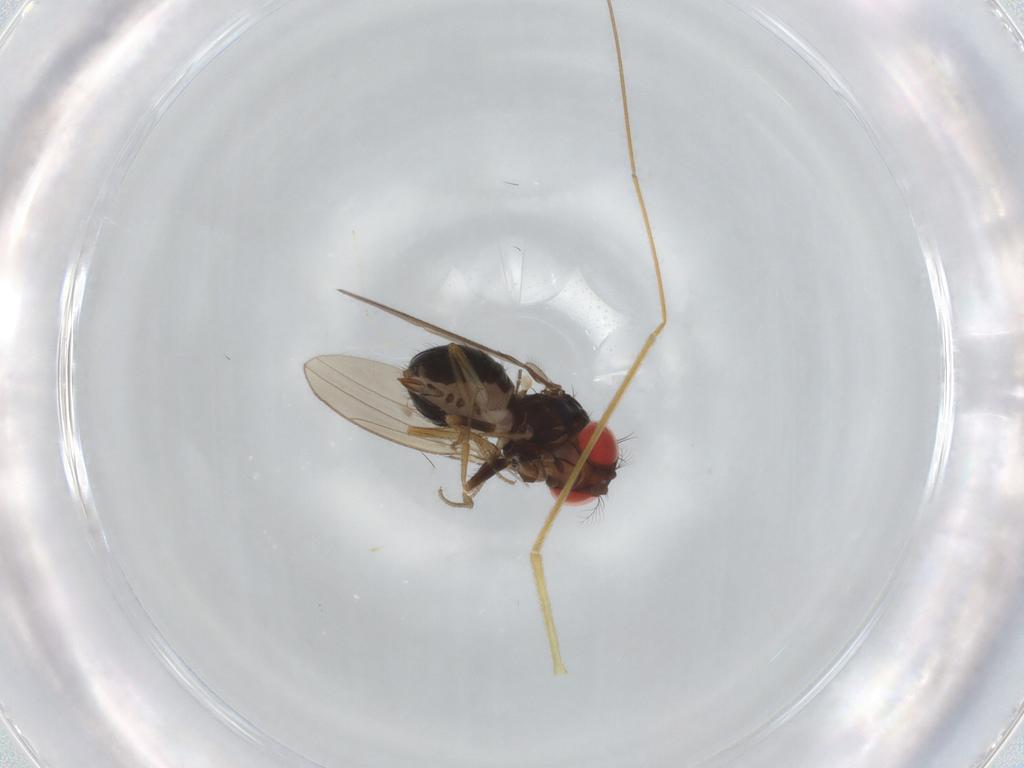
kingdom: Animalia
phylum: Arthropoda
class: Insecta
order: Diptera
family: Drosophilidae
